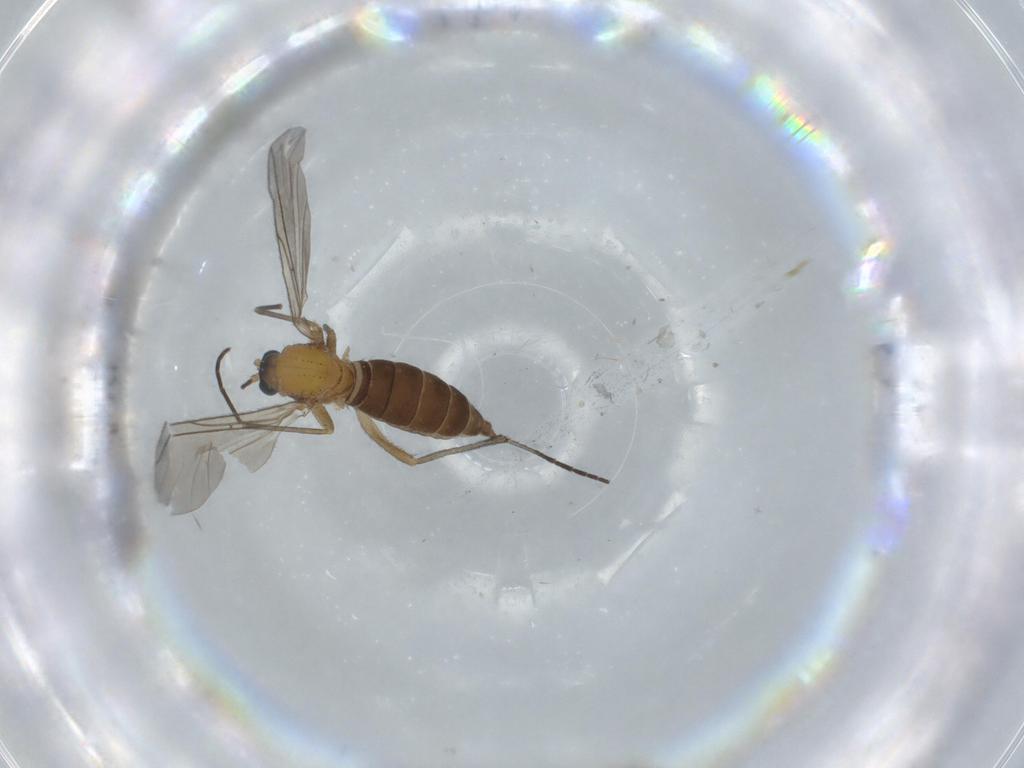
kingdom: Animalia
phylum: Arthropoda
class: Insecta
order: Diptera
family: Sciaridae
